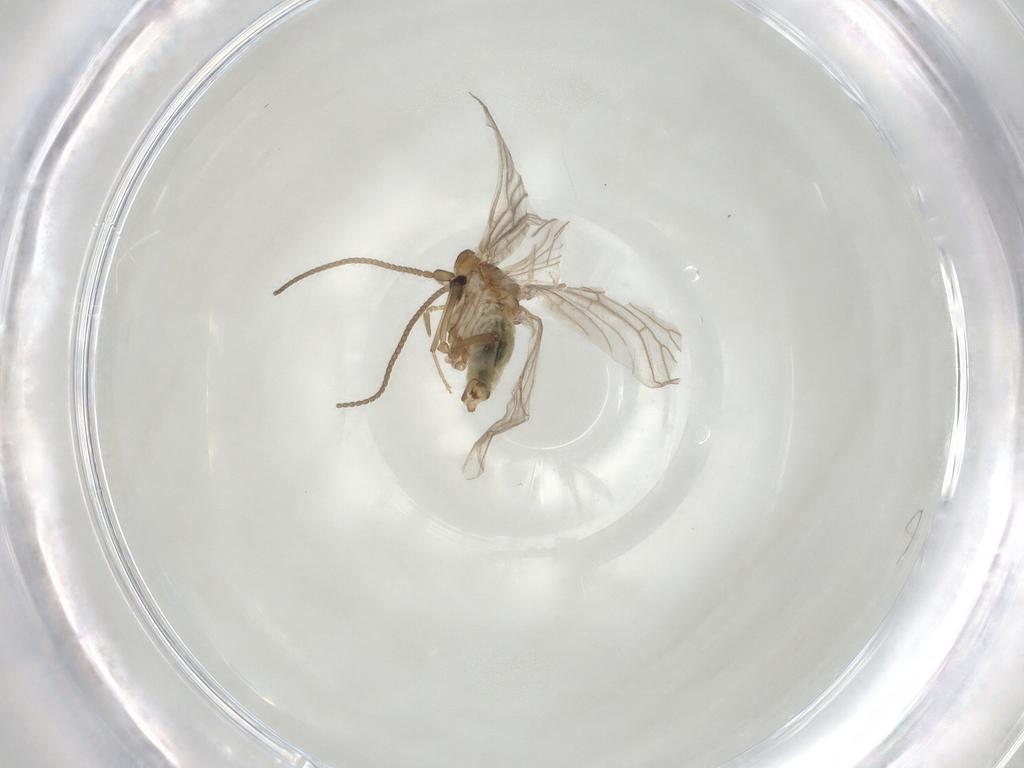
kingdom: Animalia
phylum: Arthropoda
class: Insecta
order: Neuroptera
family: Coniopterygidae
